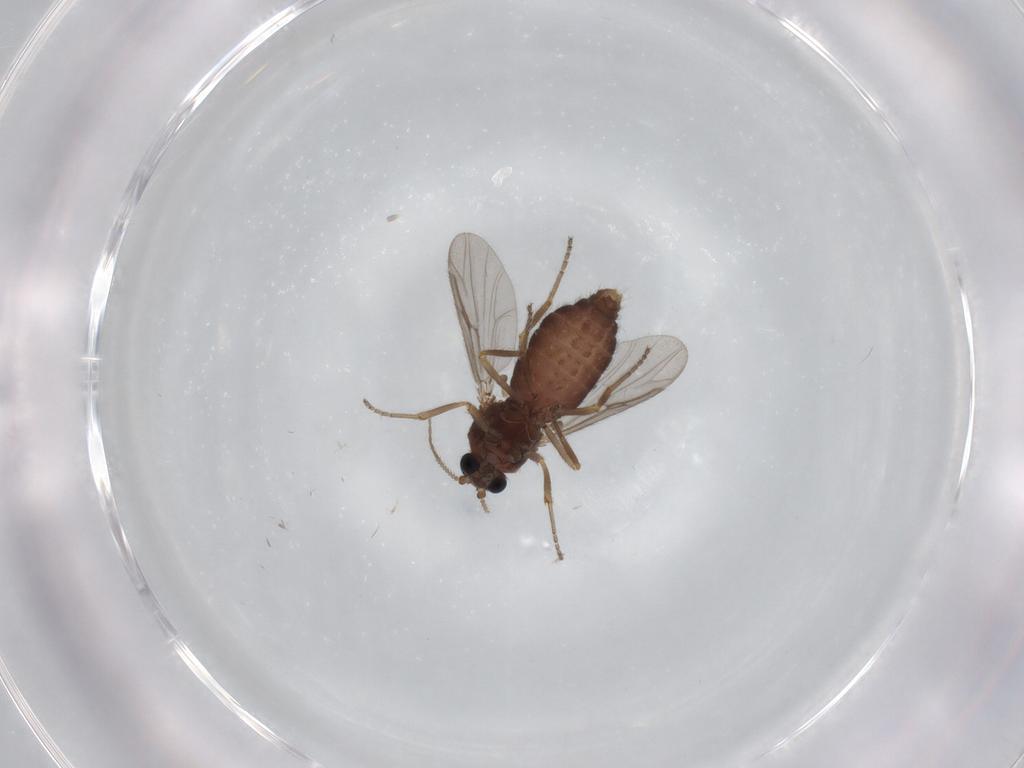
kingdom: Animalia
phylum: Arthropoda
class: Insecta
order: Diptera
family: Ceratopogonidae
